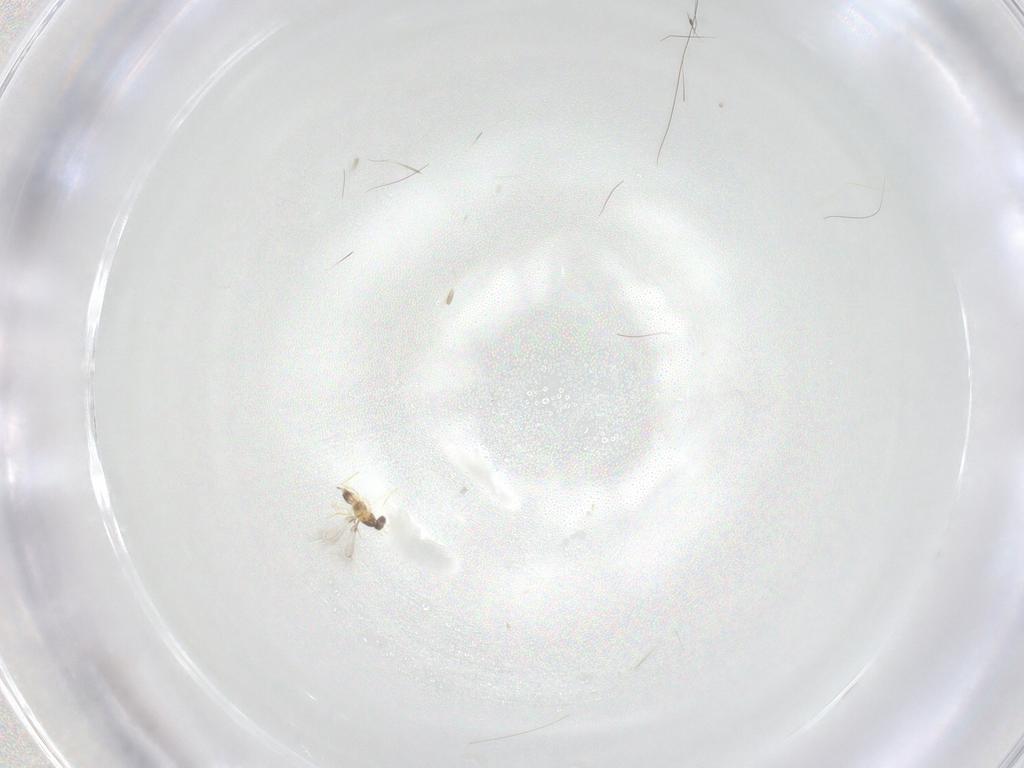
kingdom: Animalia
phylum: Arthropoda
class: Insecta
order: Hymenoptera
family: Mymaridae
